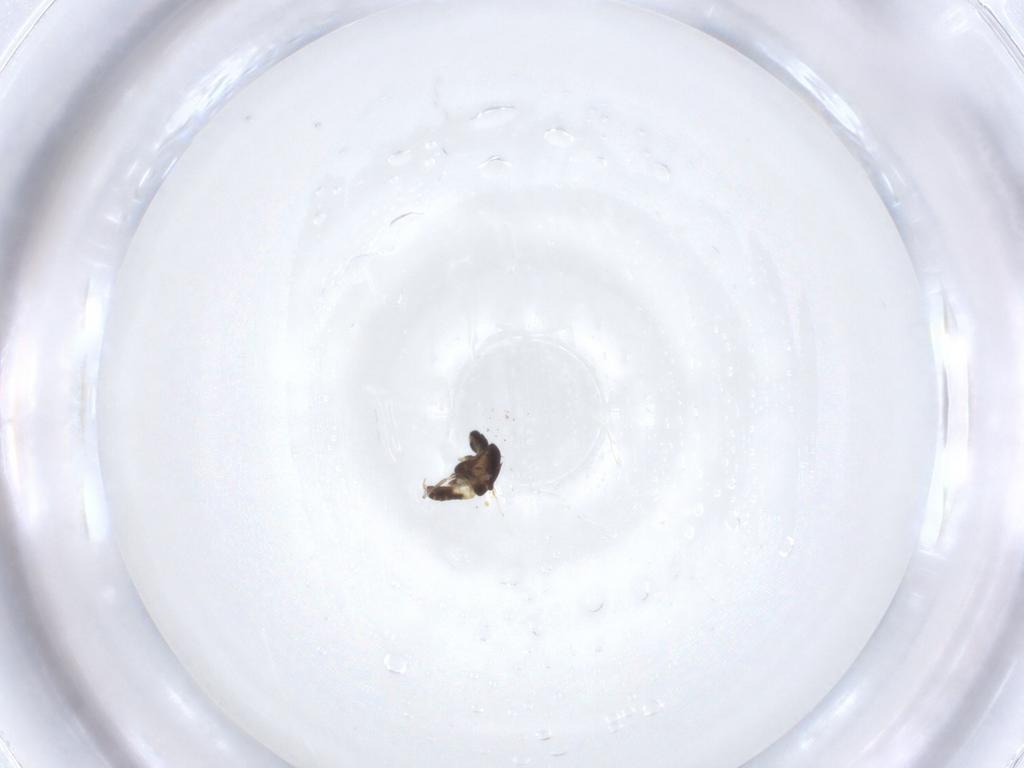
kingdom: Animalia
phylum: Arthropoda
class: Insecta
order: Diptera
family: Chironomidae
